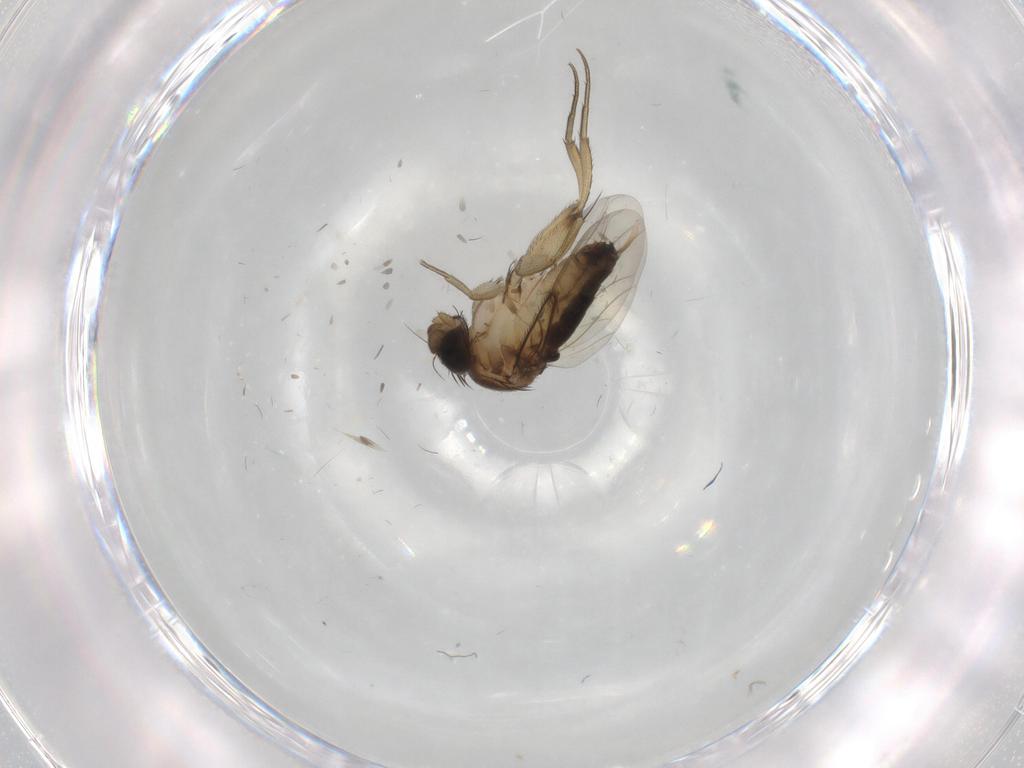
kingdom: Animalia
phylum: Arthropoda
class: Insecta
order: Diptera
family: Phoridae
